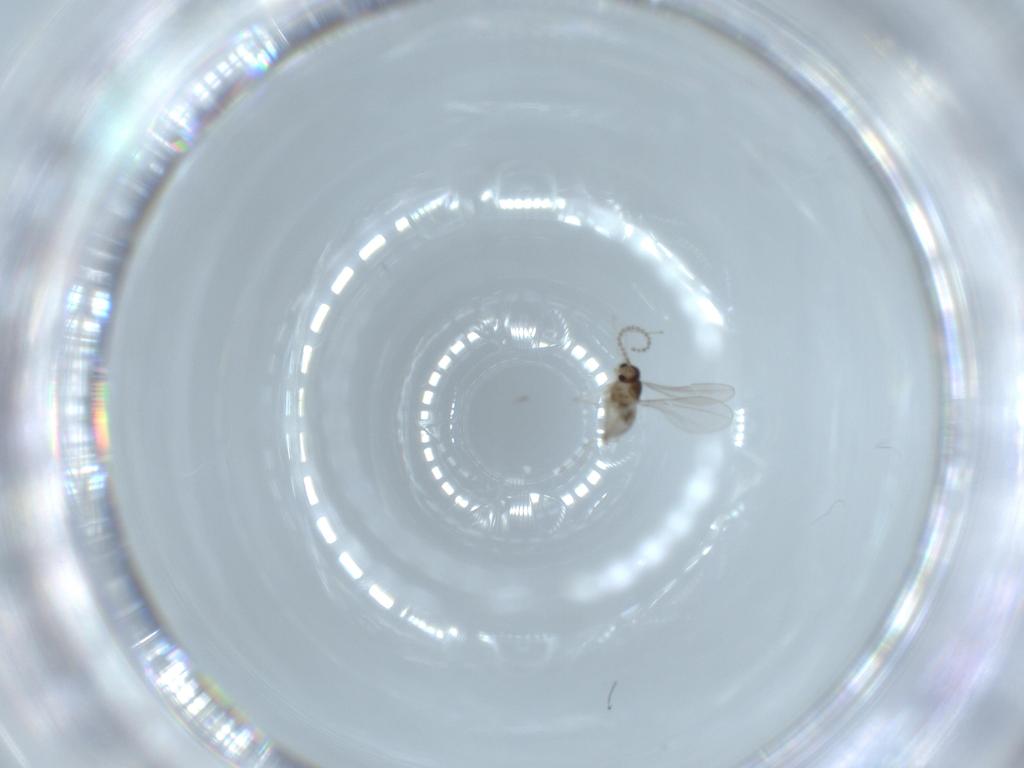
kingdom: Animalia
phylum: Arthropoda
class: Insecta
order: Diptera
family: Cecidomyiidae
